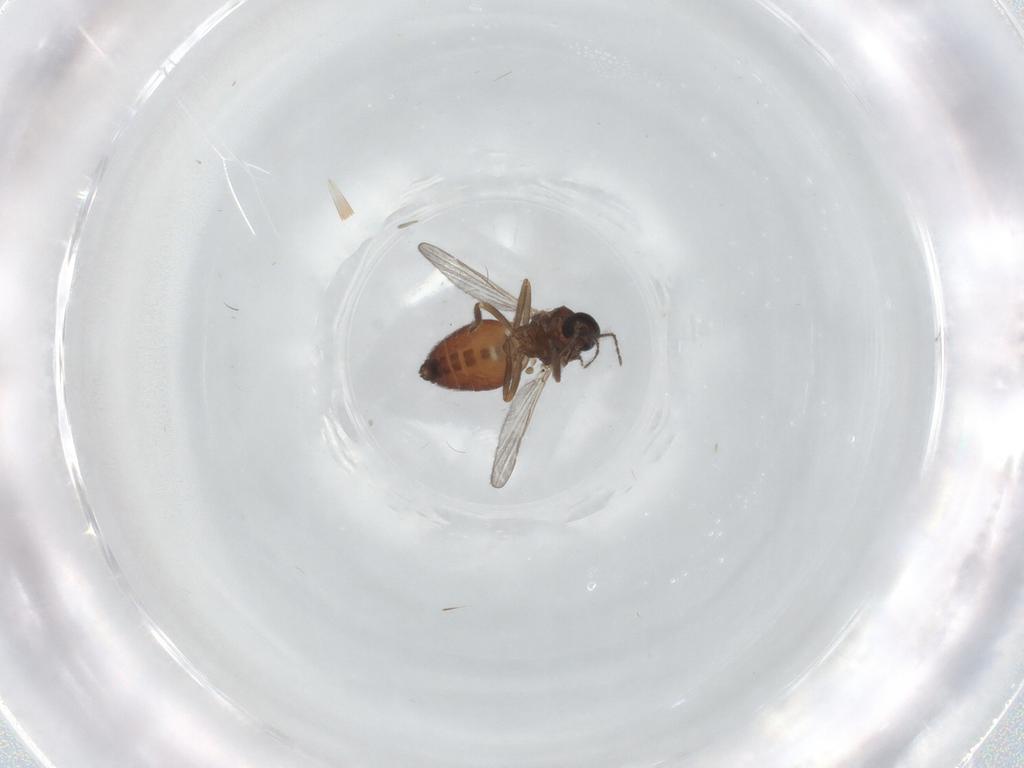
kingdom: Animalia
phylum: Arthropoda
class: Insecta
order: Diptera
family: Ceratopogonidae
